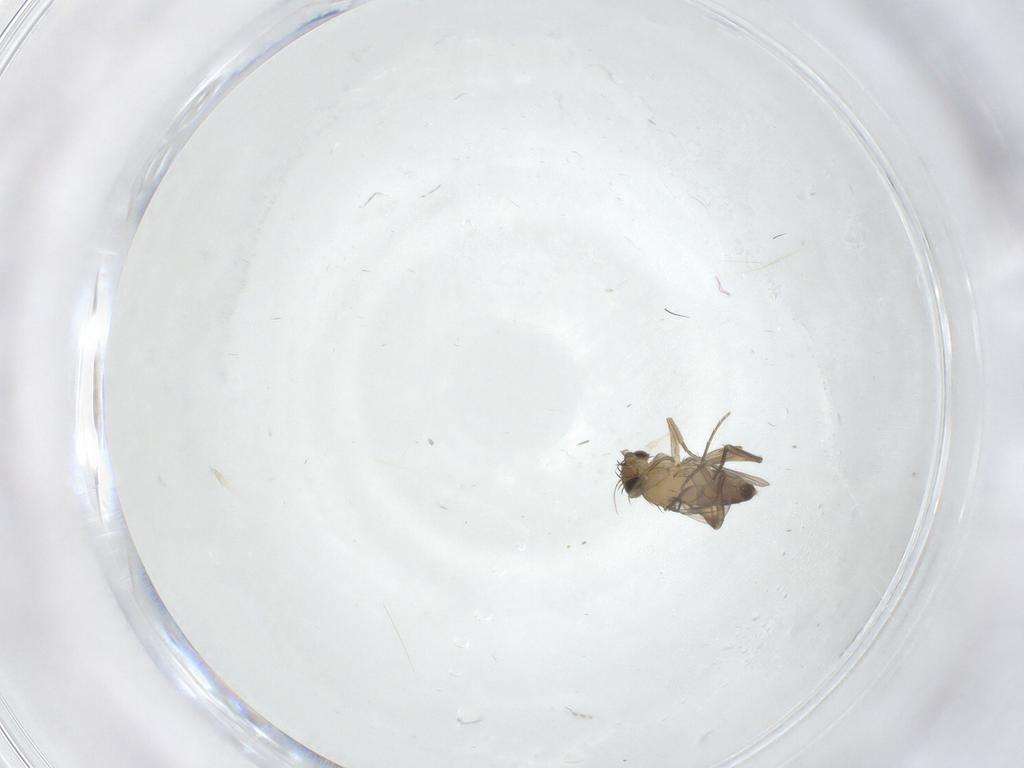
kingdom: Animalia
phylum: Arthropoda
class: Insecta
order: Diptera
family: Phoridae
